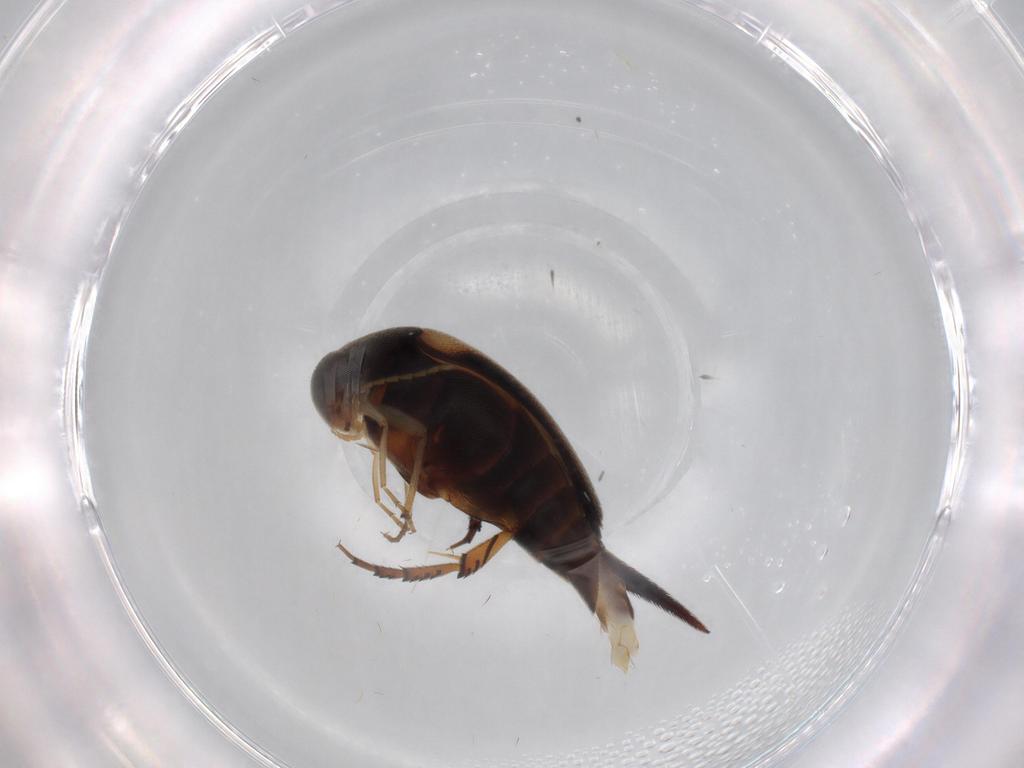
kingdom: Animalia
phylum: Arthropoda
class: Insecta
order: Coleoptera
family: Mordellidae
